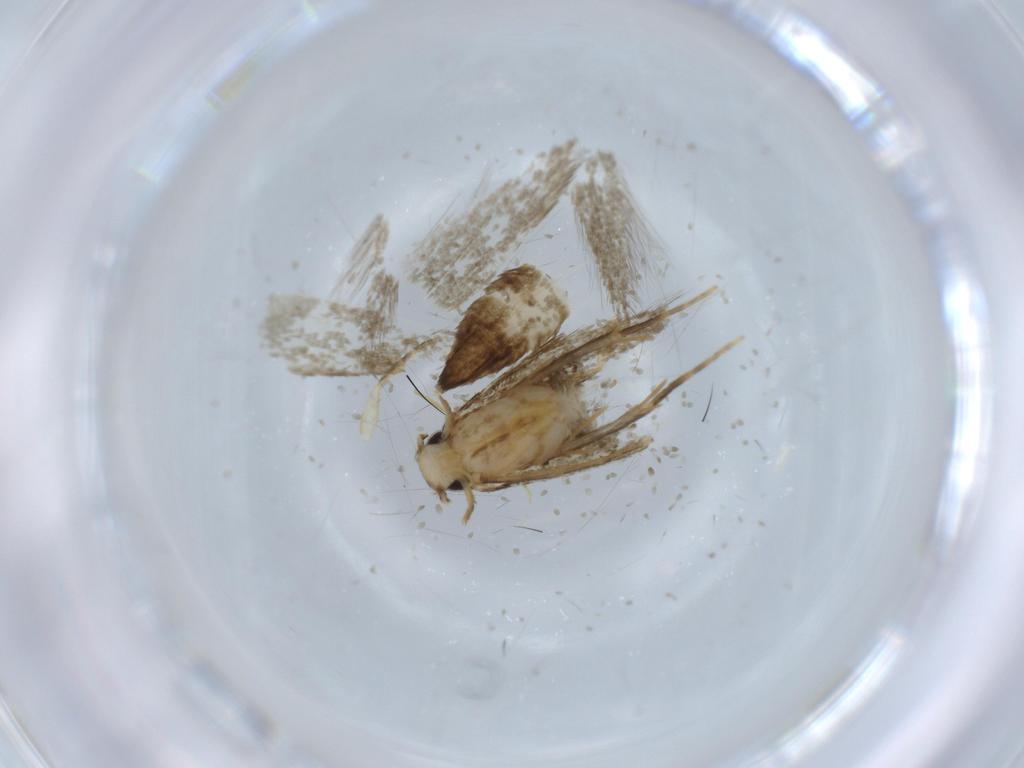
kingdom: Animalia
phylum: Arthropoda
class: Insecta
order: Lepidoptera
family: Tineidae
